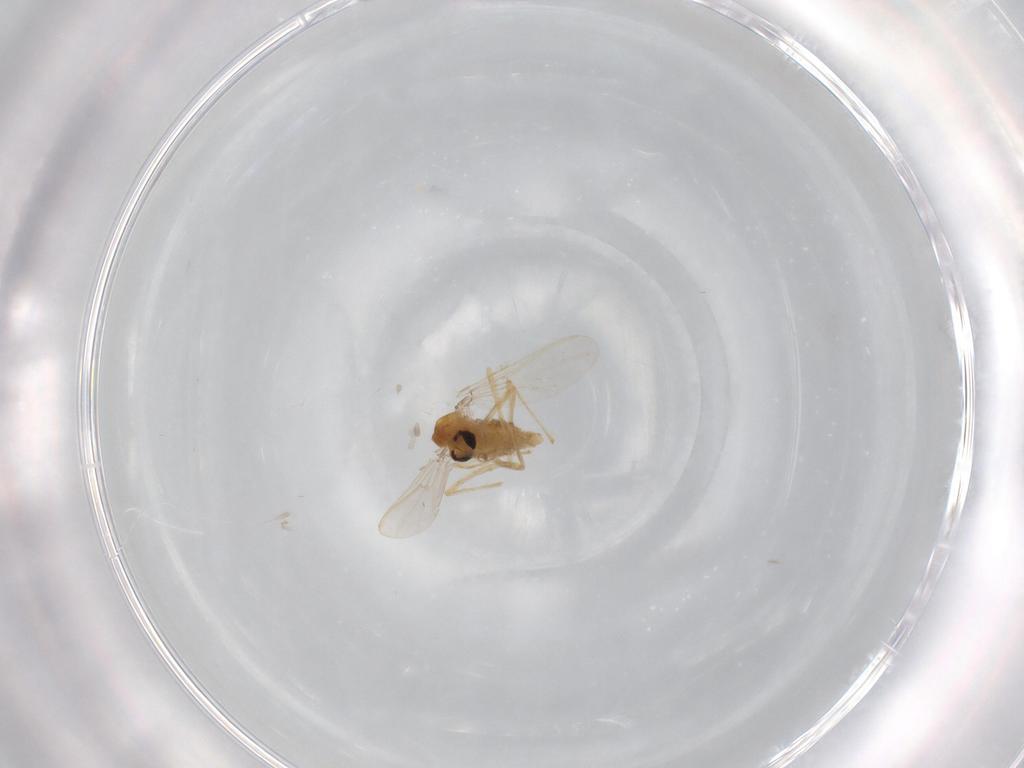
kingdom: Animalia
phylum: Arthropoda
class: Insecta
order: Diptera
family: Chironomidae
